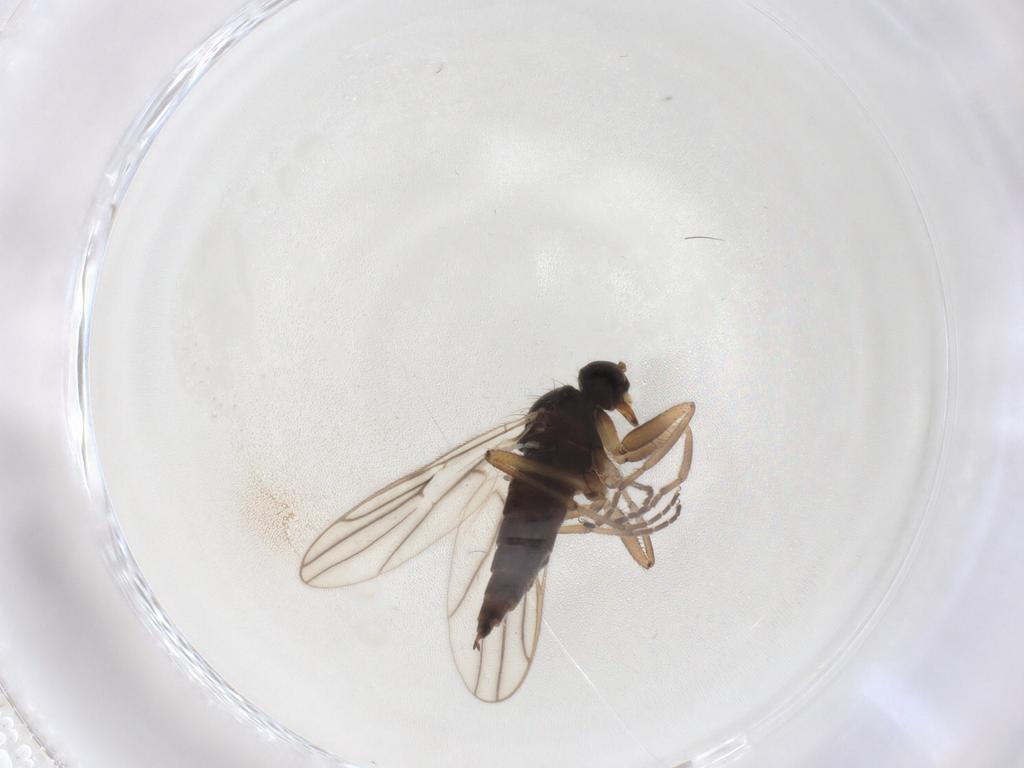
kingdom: Animalia
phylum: Arthropoda
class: Insecta
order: Diptera
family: Hybotidae
